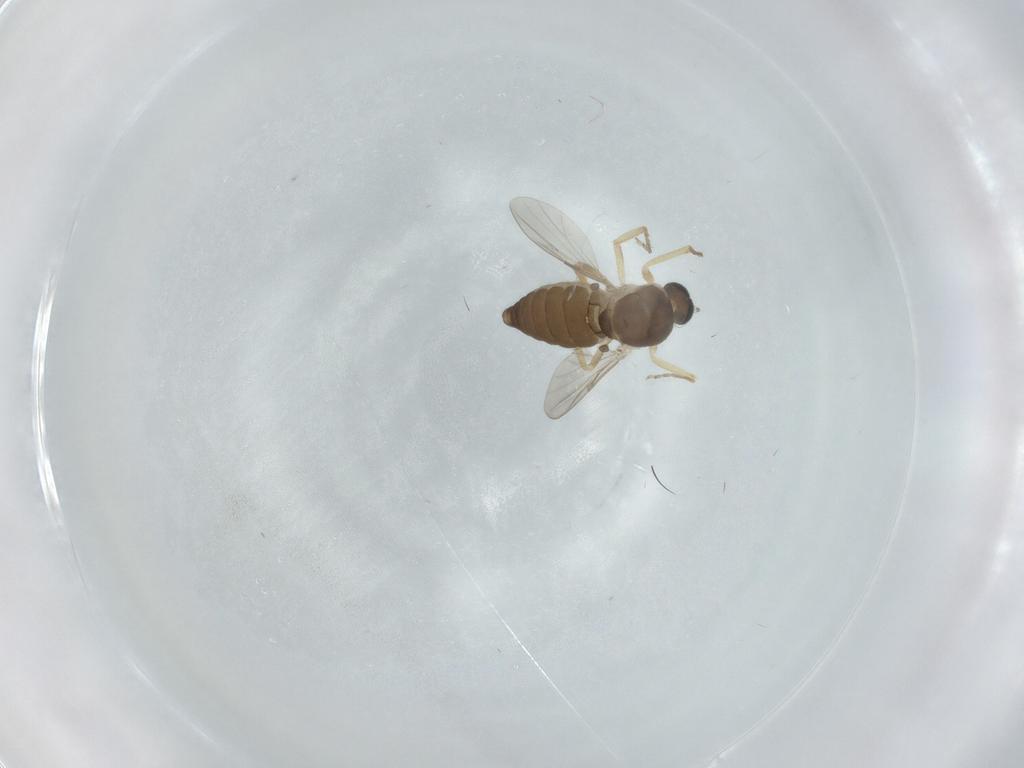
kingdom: Animalia
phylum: Arthropoda
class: Insecta
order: Diptera
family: Ceratopogonidae
